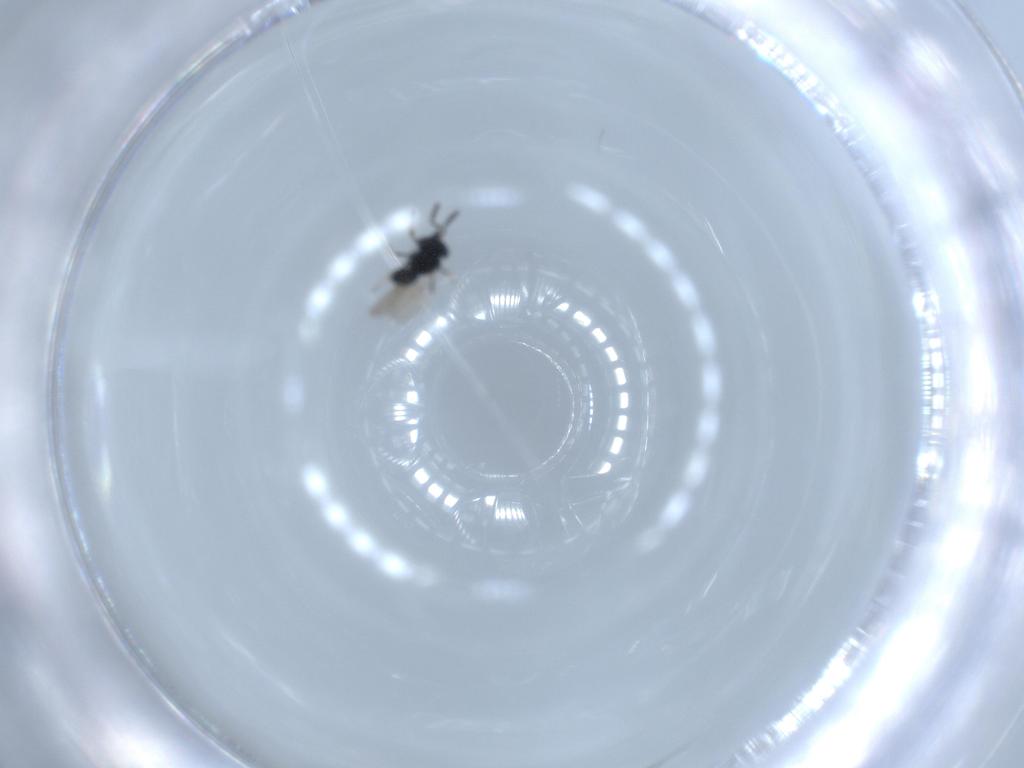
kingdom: Animalia
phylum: Arthropoda
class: Insecta
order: Hymenoptera
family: Scelionidae
